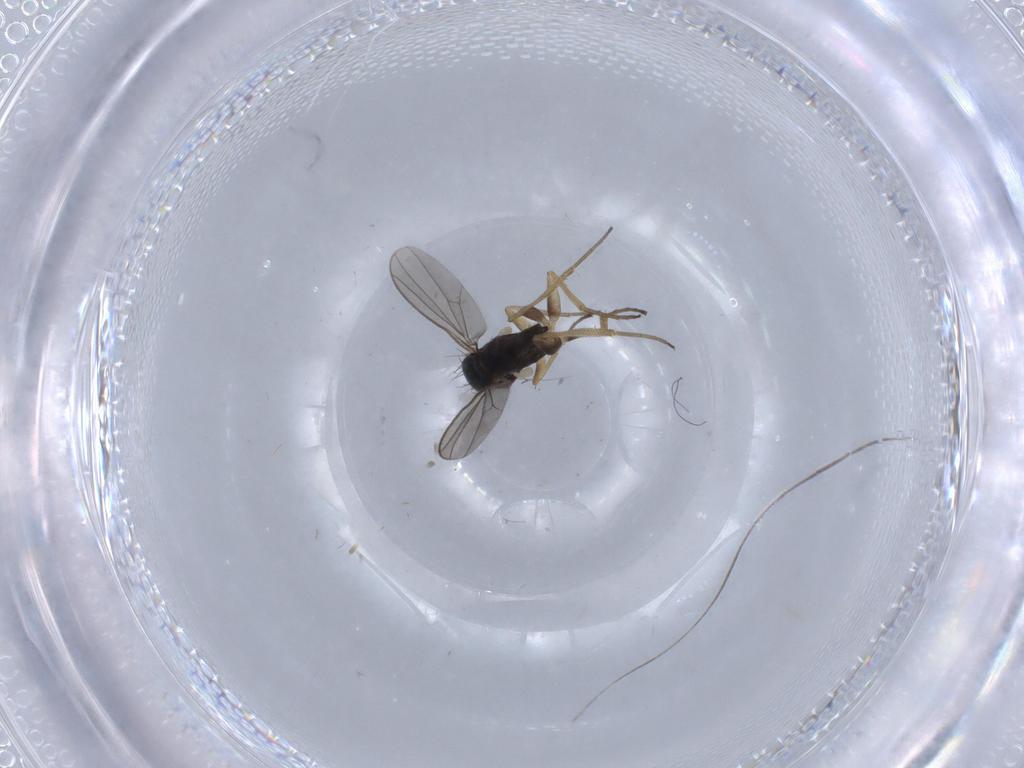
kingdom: Animalia
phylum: Arthropoda
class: Insecta
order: Diptera
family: Dolichopodidae
